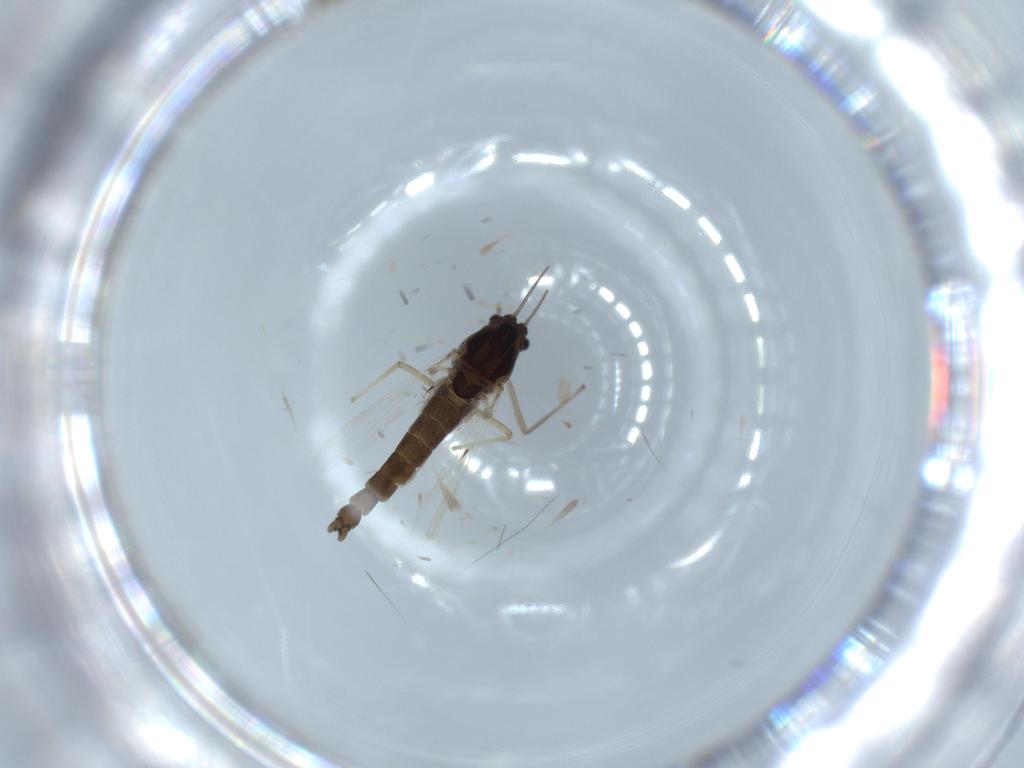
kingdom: Animalia
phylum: Arthropoda
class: Insecta
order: Diptera
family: Chironomidae
